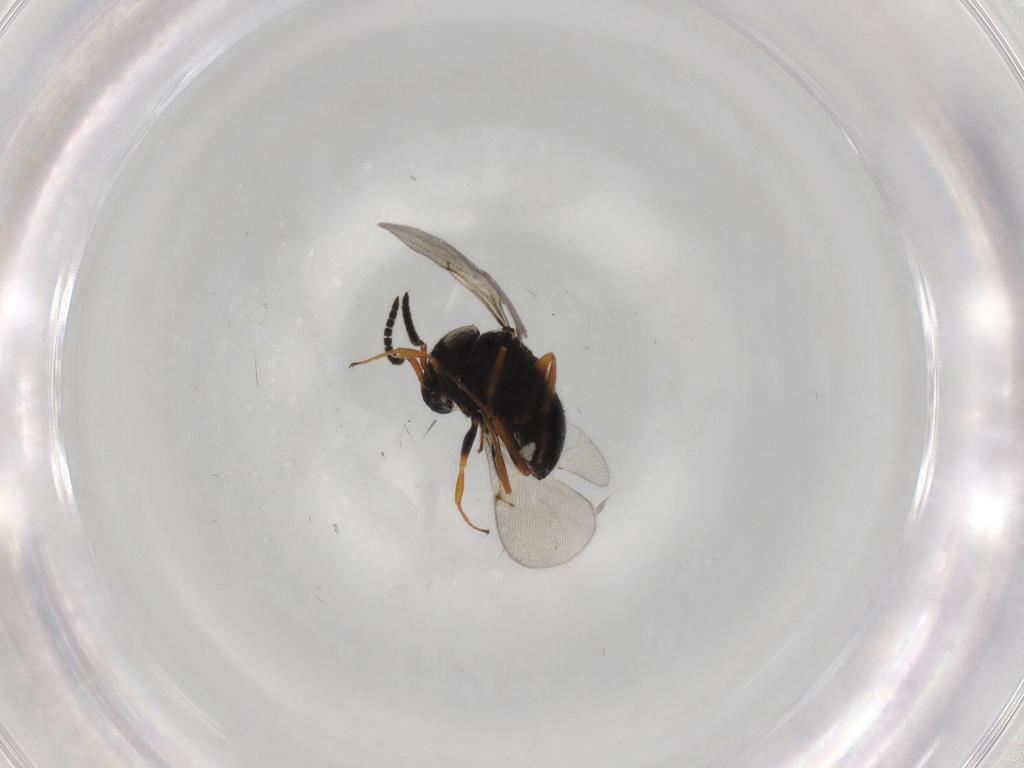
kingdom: Animalia
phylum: Arthropoda
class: Insecta
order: Hymenoptera
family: Scelionidae
